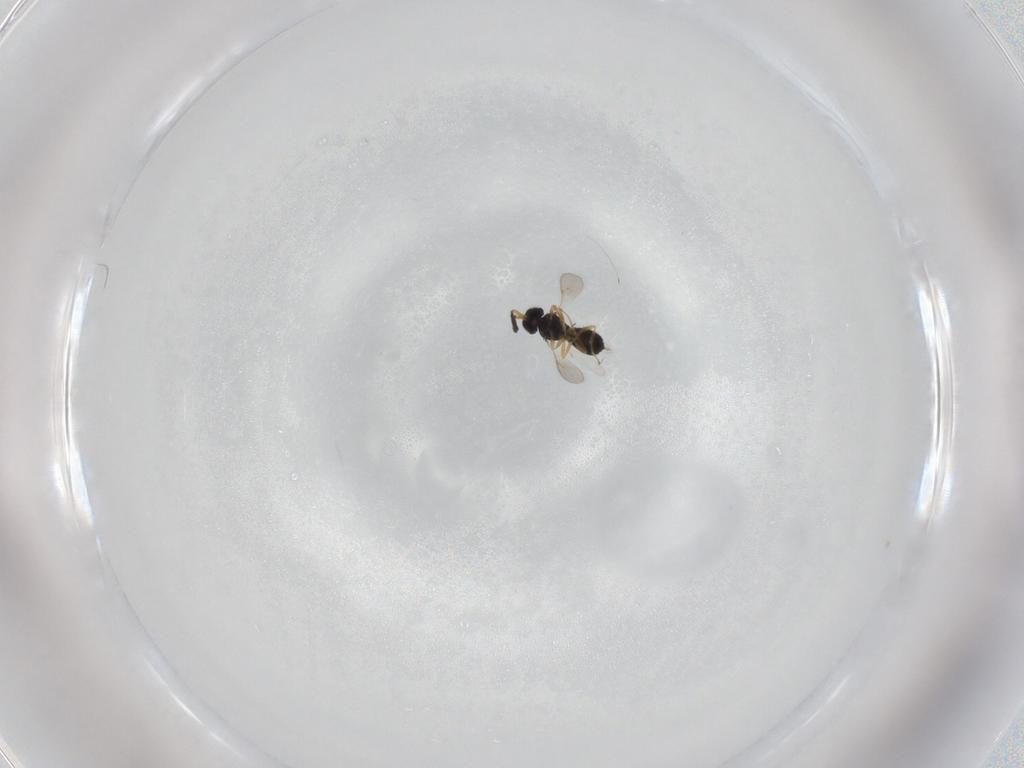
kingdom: Animalia
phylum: Arthropoda
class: Insecta
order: Hymenoptera
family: Scelionidae
